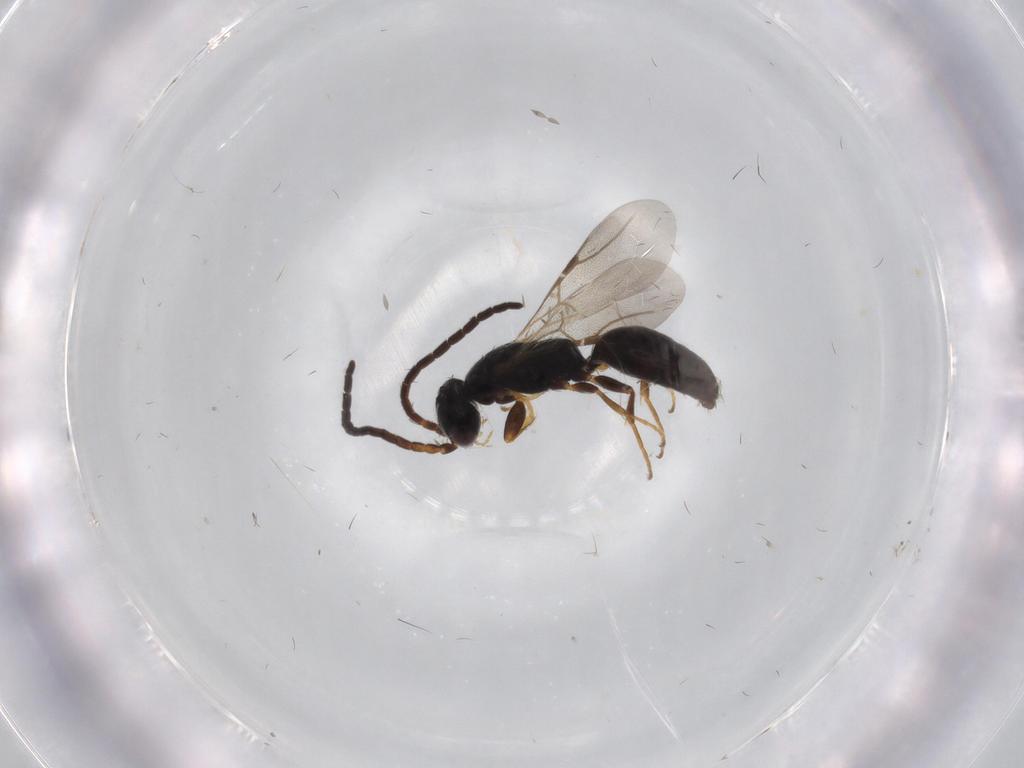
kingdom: Animalia
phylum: Arthropoda
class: Insecta
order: Hymenoptera
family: Bethylidae
